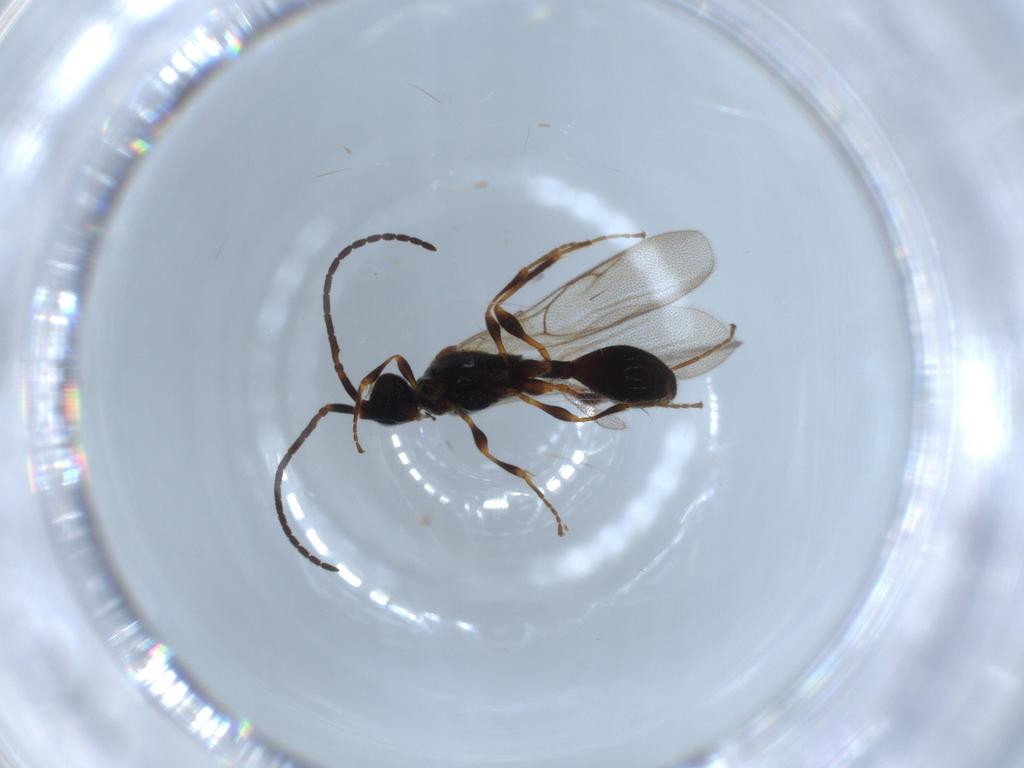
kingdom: Animalia
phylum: Arthropoda
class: Insecta
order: Hymenoptera
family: Diapriidae
